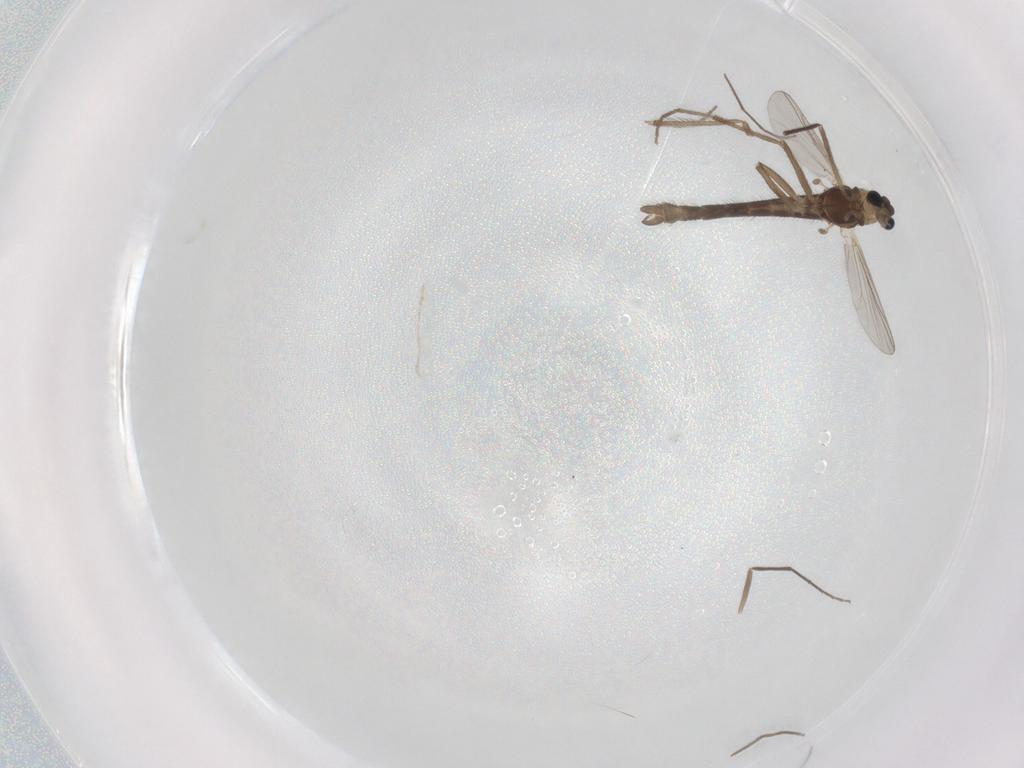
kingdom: Animalia
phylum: Arthropoda
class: Insecta
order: Diptera
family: Chironomidae
